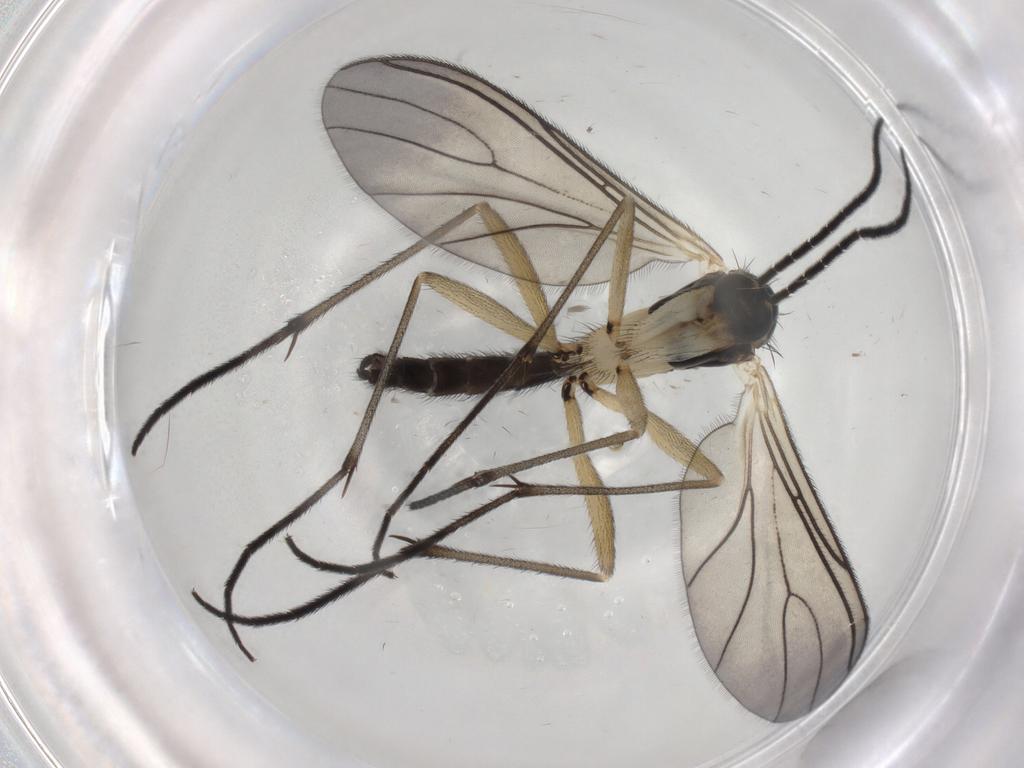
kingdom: Animalia
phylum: Arthropoda
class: Insecta
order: Diptera
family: Sciaridae
